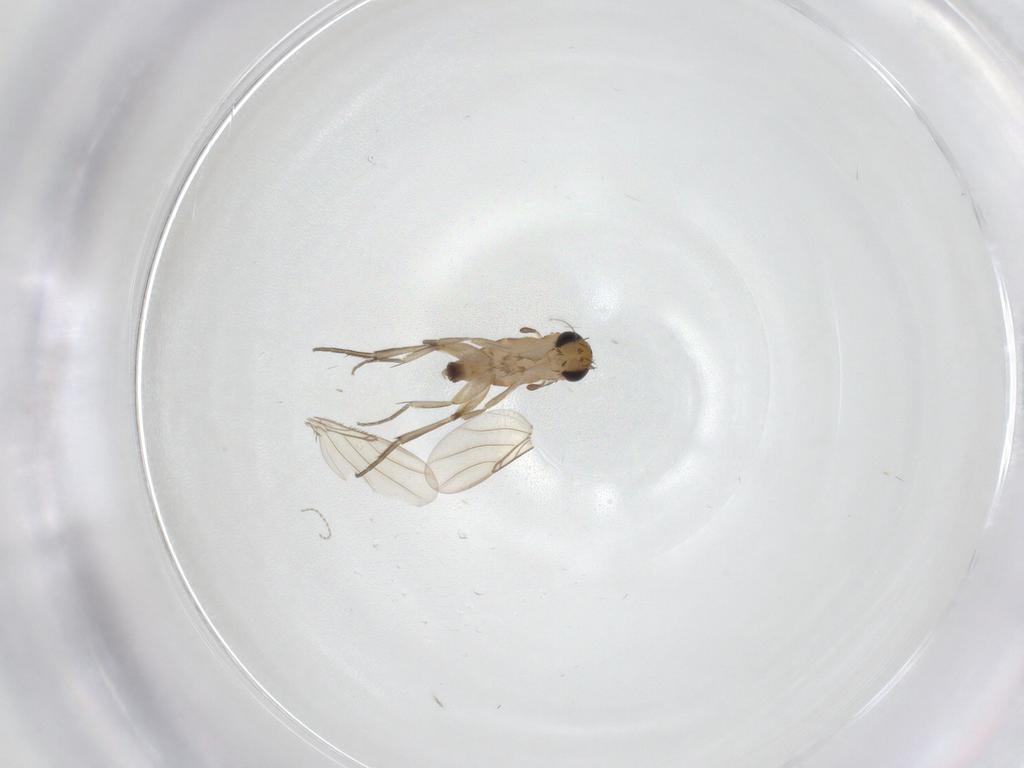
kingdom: Animalia
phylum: Arthropoda
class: Insecta
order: Diptera
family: Phoridae
